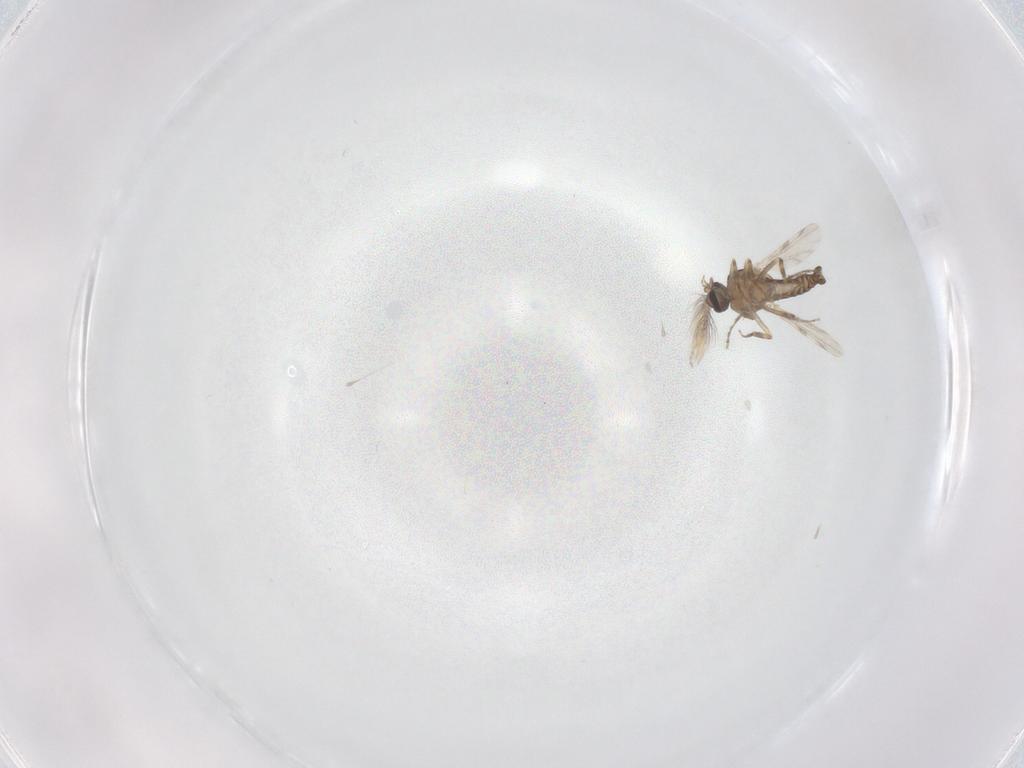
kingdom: Animalia
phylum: Arthropoda
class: Insecta
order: Diptera
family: Ceratopogonidae
